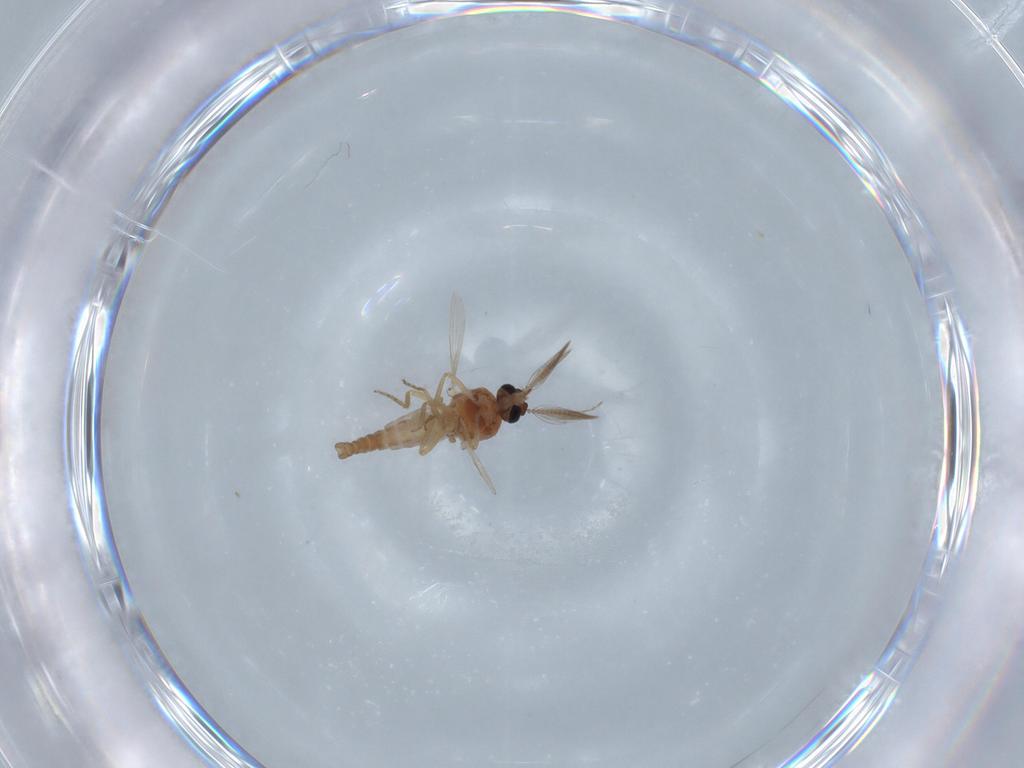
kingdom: Animalia
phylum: Arthropoda
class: Insecta
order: Diptera
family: Ceratopogonidae
